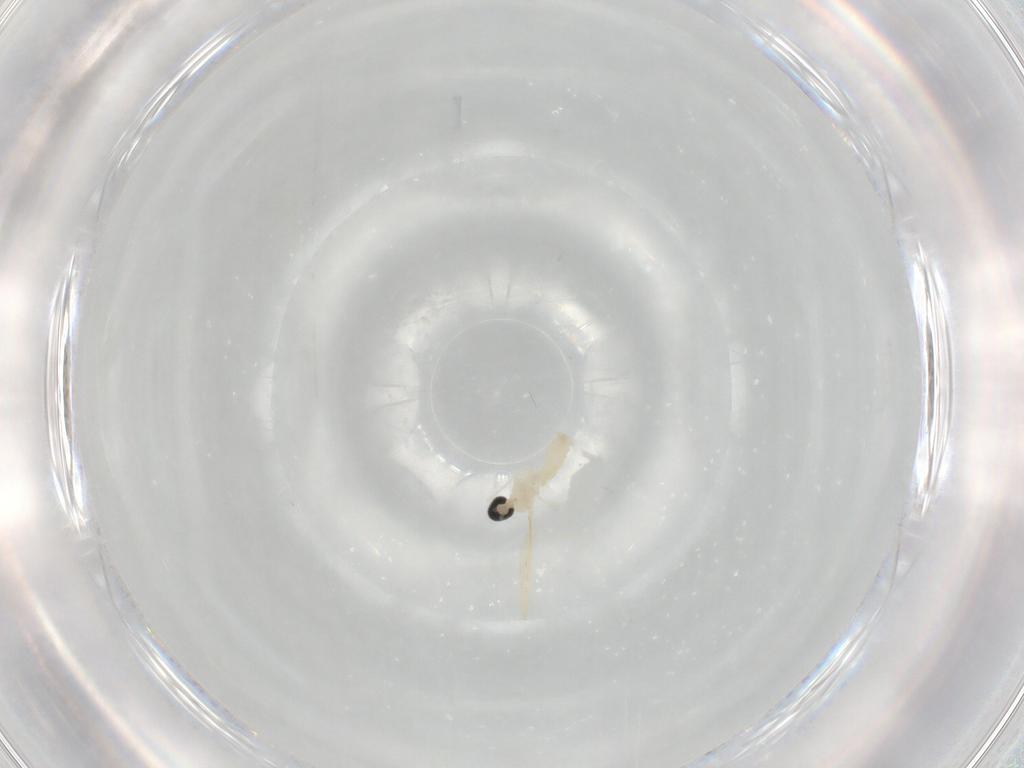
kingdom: Animalia
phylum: Arthropoda
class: Insecta
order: Diptera
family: Cecidomyiidae
